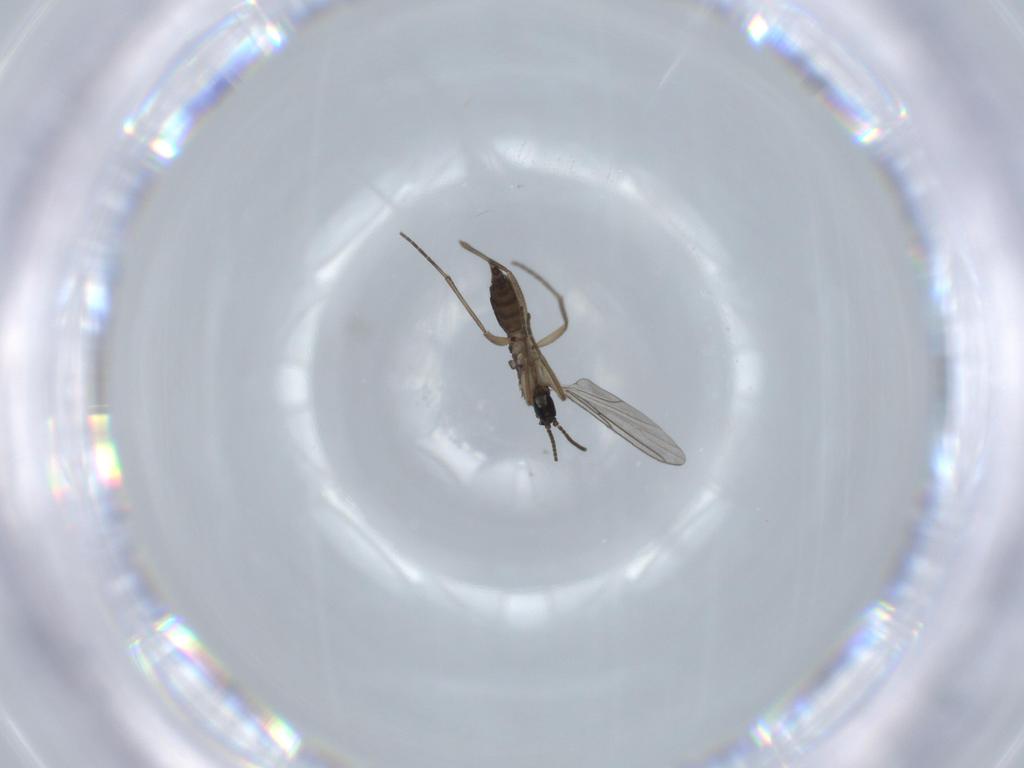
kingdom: Animalia
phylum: Arthropoda
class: Insecta
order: Diptera
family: Sciaridae
